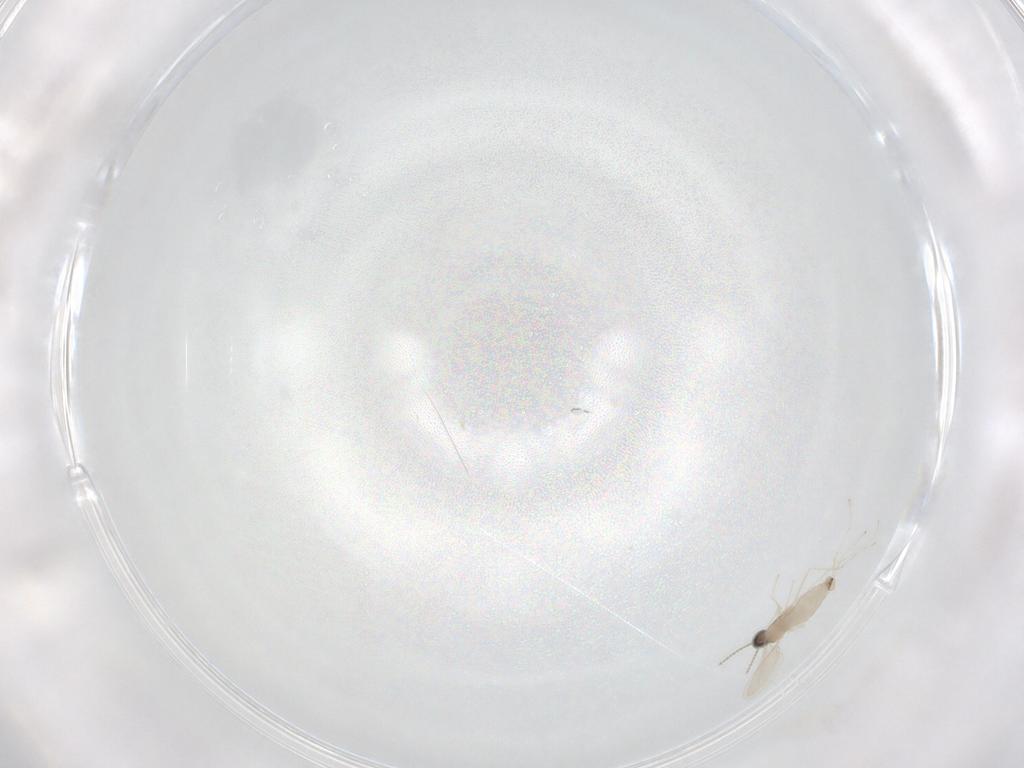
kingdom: Animalia
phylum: Arthropoda
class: Insecta
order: Diptera
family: Cecidomyiidae
